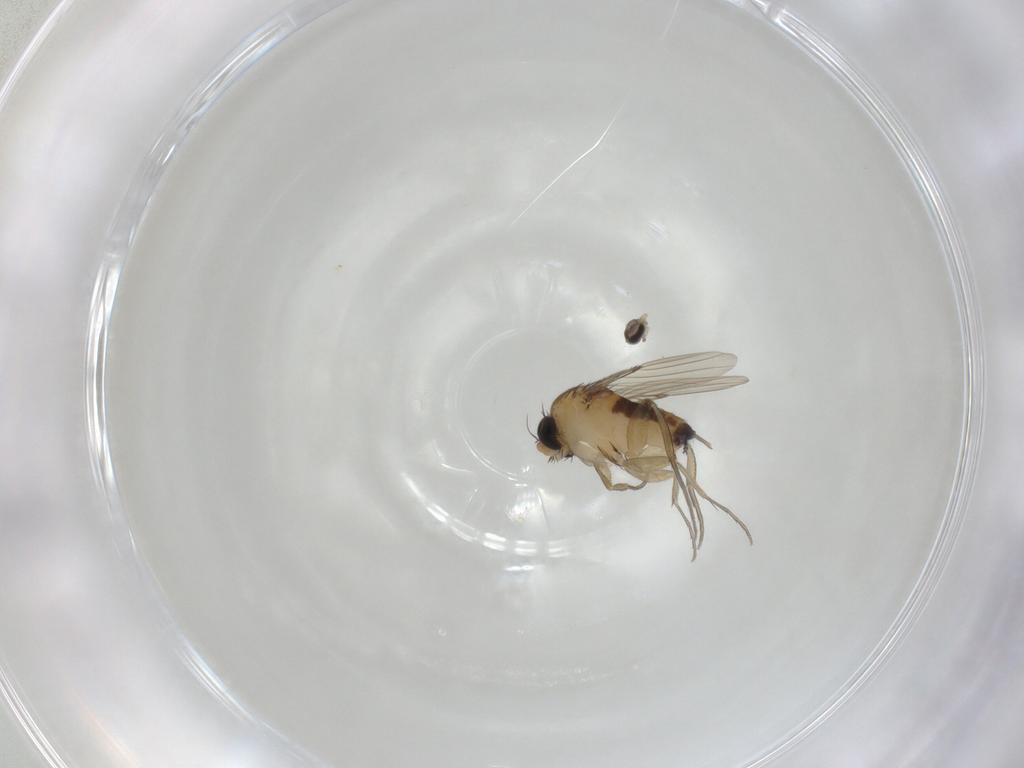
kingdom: Animalia
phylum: Arthropoda
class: Insecta
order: Diptera
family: Phoridae
